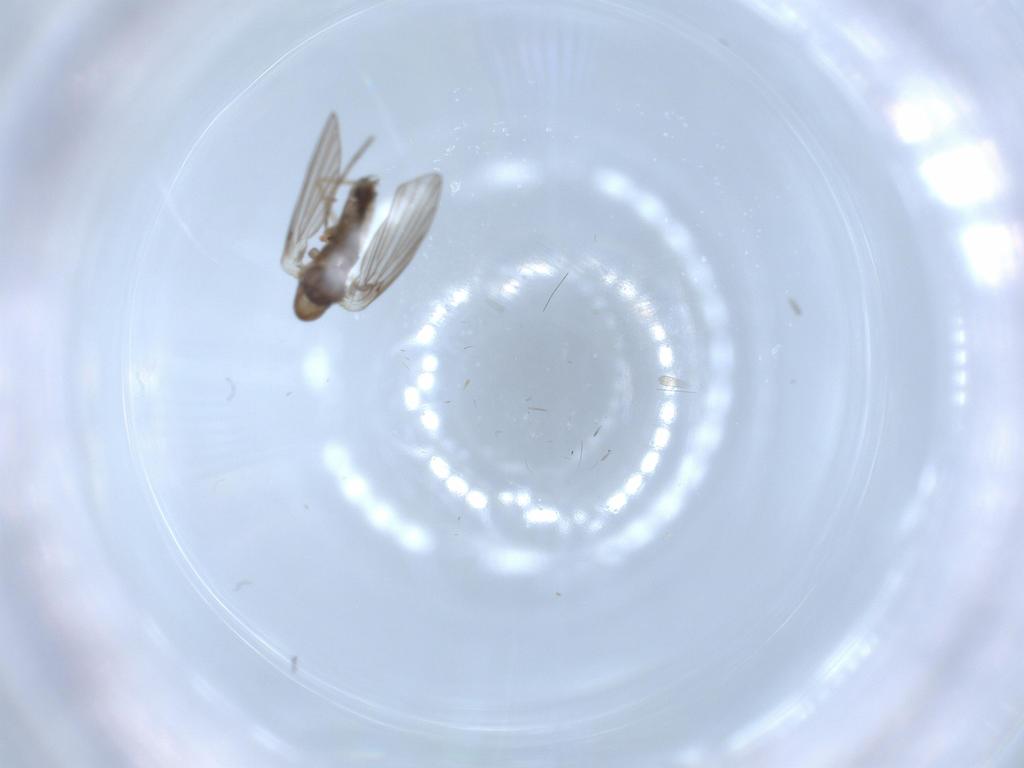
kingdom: Animalia
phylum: Arthropoda
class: Insecta
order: Diptera
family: Psychodidae
